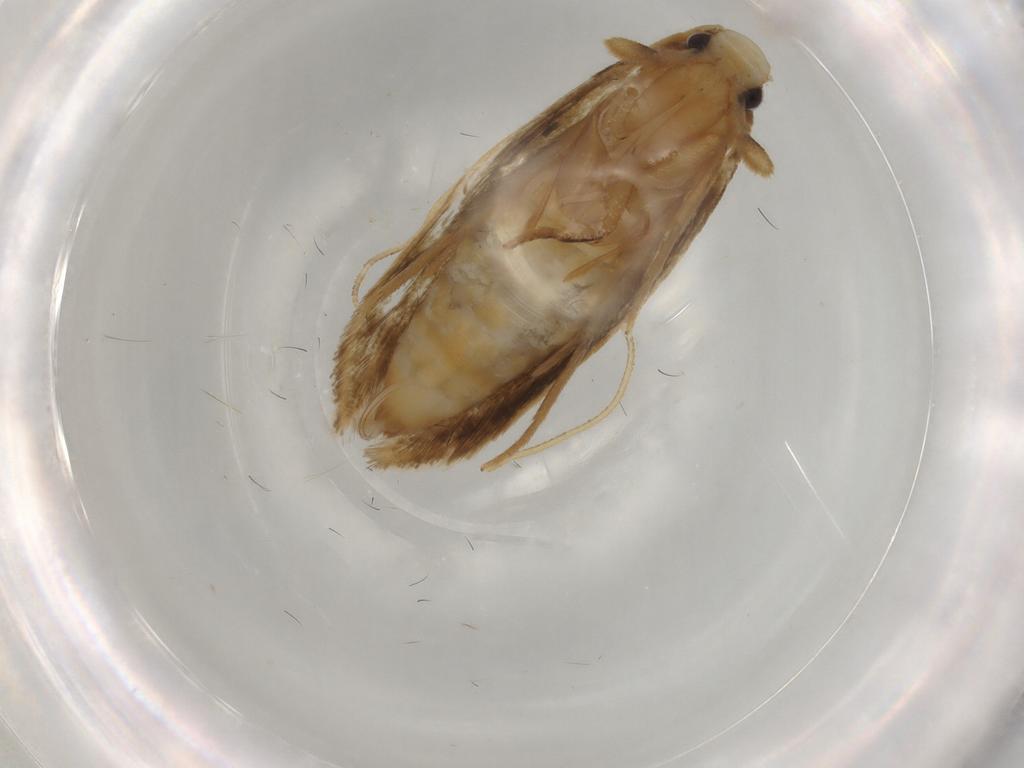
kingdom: Animalia
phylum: Arthropoda
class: Insecta
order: Lepidoptera
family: Tineidae
